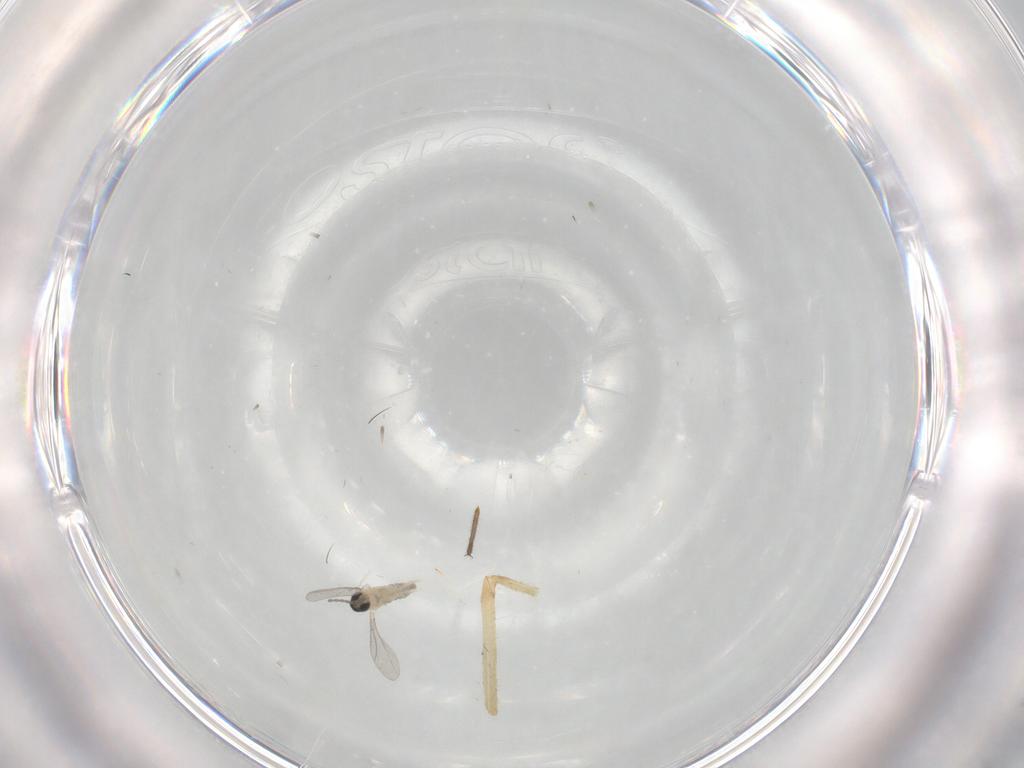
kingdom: Animalia
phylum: Arthropoda
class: Insecta
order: Diptera
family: Cecidomyiidae
